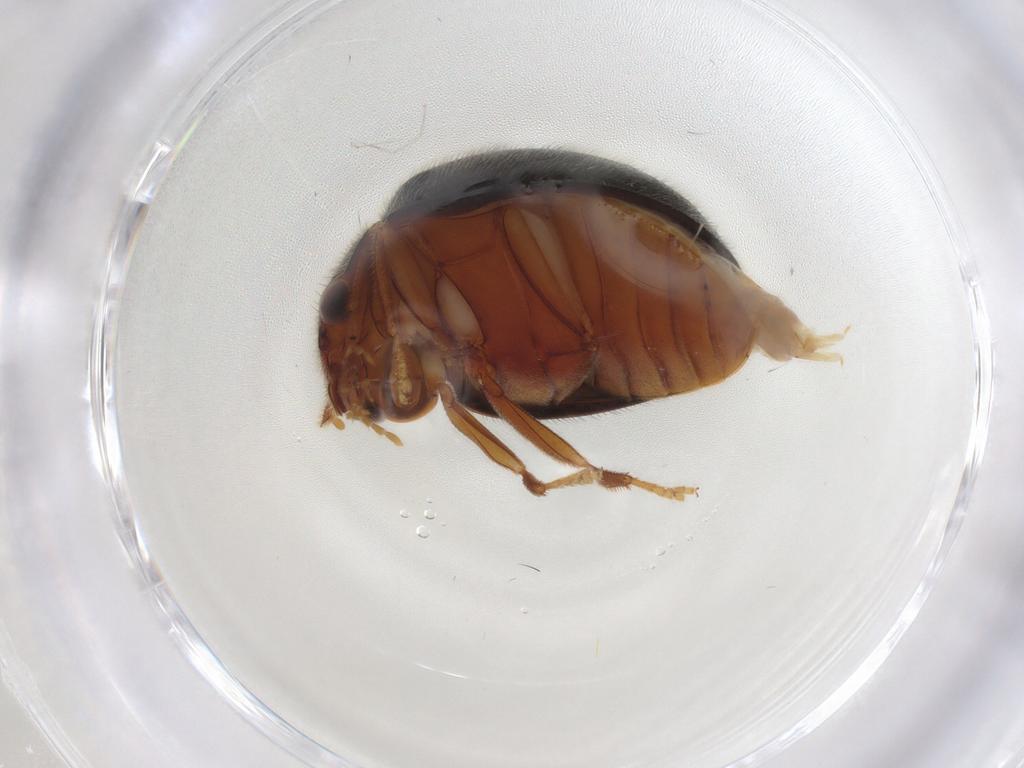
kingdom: Animalia
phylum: Arthropoda
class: Insecta
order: Coleoptera
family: Scirtidae
